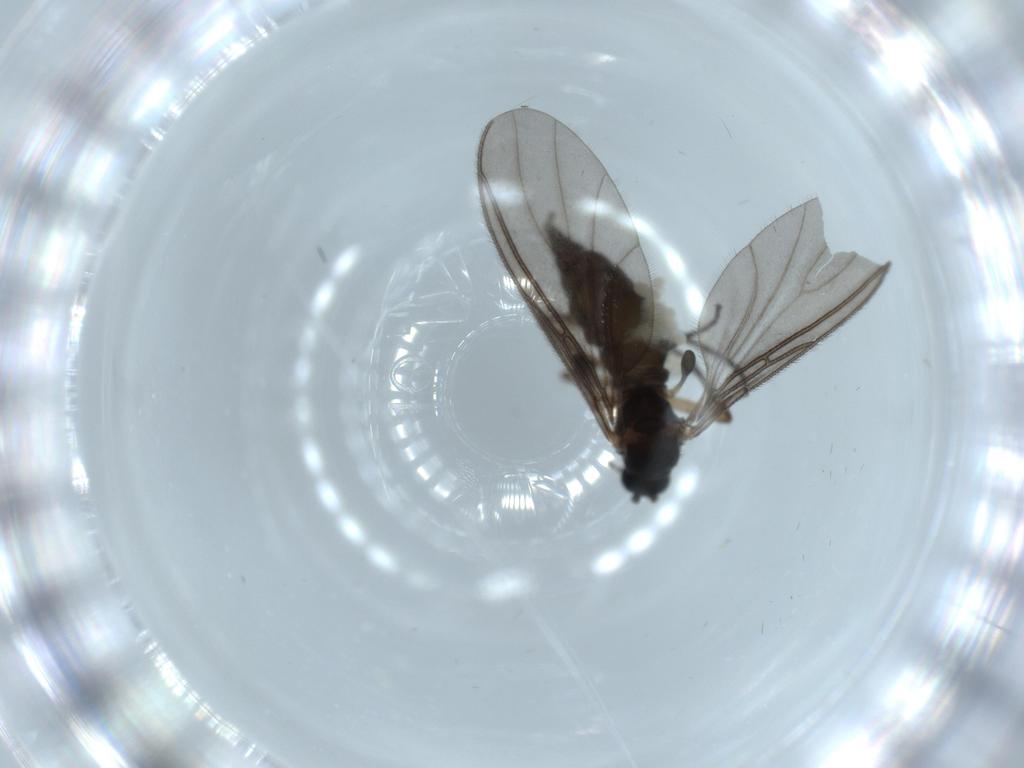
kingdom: Animalia
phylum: Arthropoda
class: Insecta
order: Diptera
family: Sciaridae
